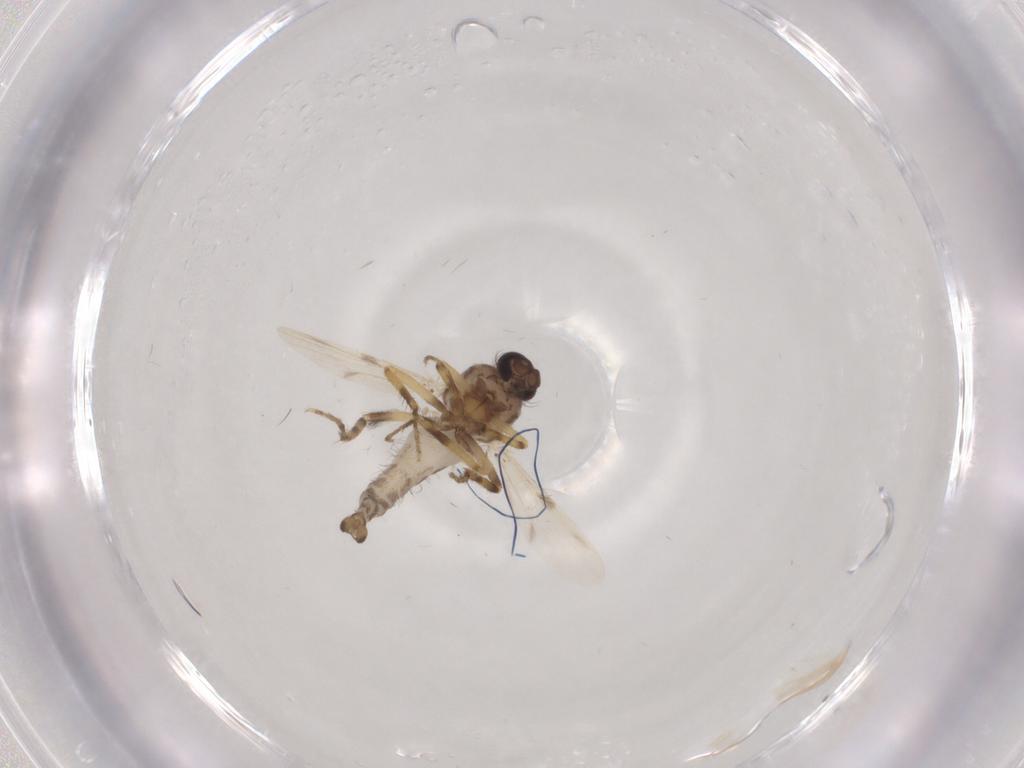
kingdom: Animalia
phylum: Arthropoda
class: Insecta
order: Diptera
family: Ceratopogonidae
